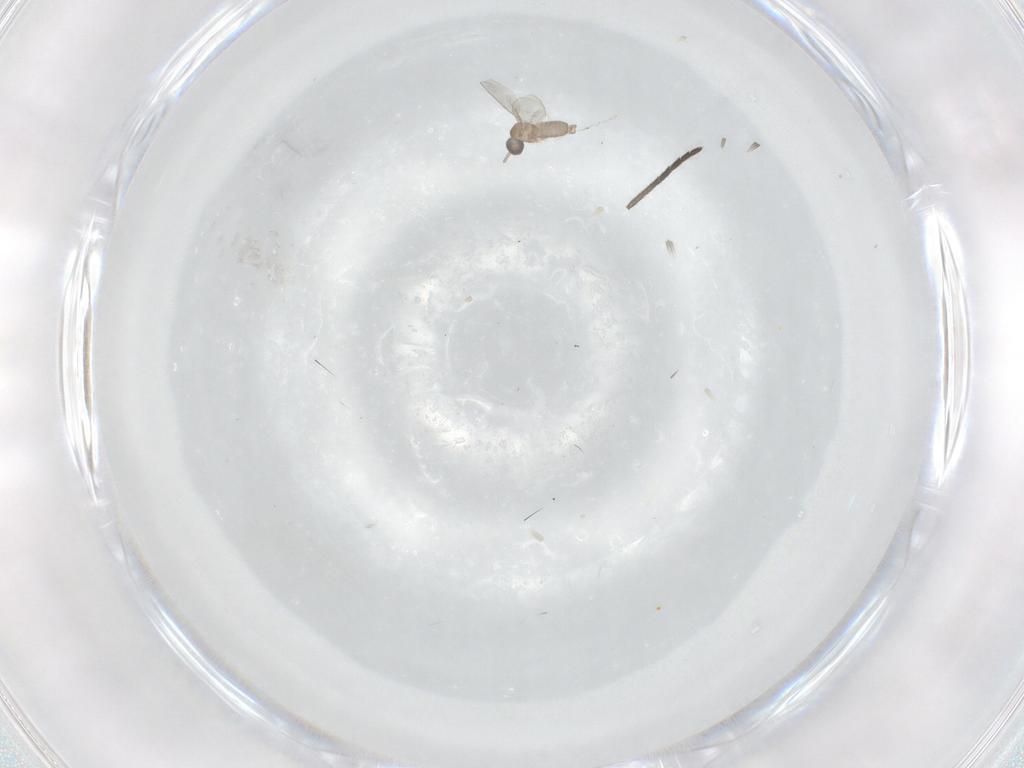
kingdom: Animalia
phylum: Arthropoda
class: Insecta
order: Diptera
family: Sciaridae
